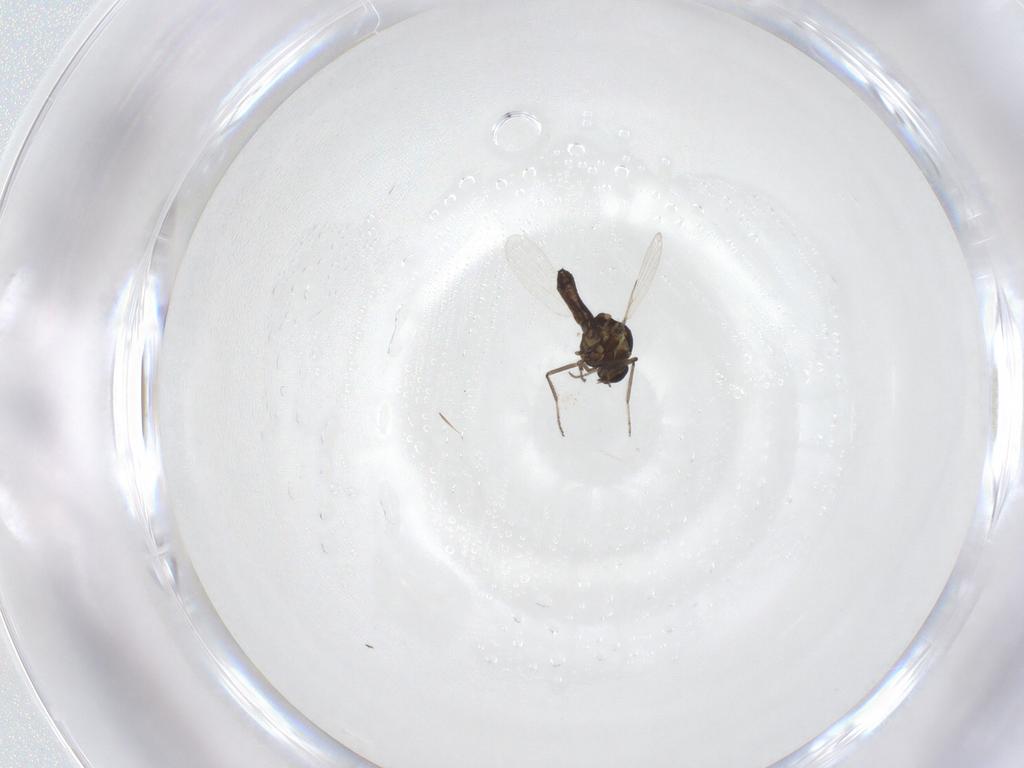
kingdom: Animalia
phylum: Arthropoda
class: Insecta
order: Diptera
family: Ceratopogonidae
